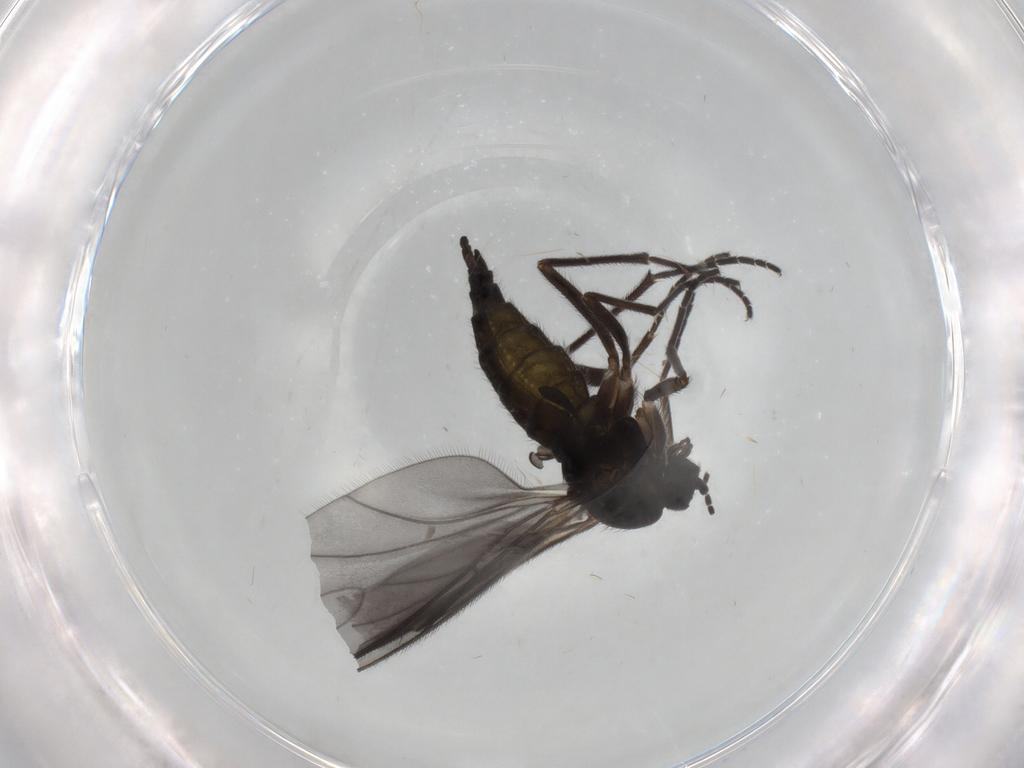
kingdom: Animalia
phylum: Arthropoda
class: Insecta
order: Diptera
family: Sciaridae
